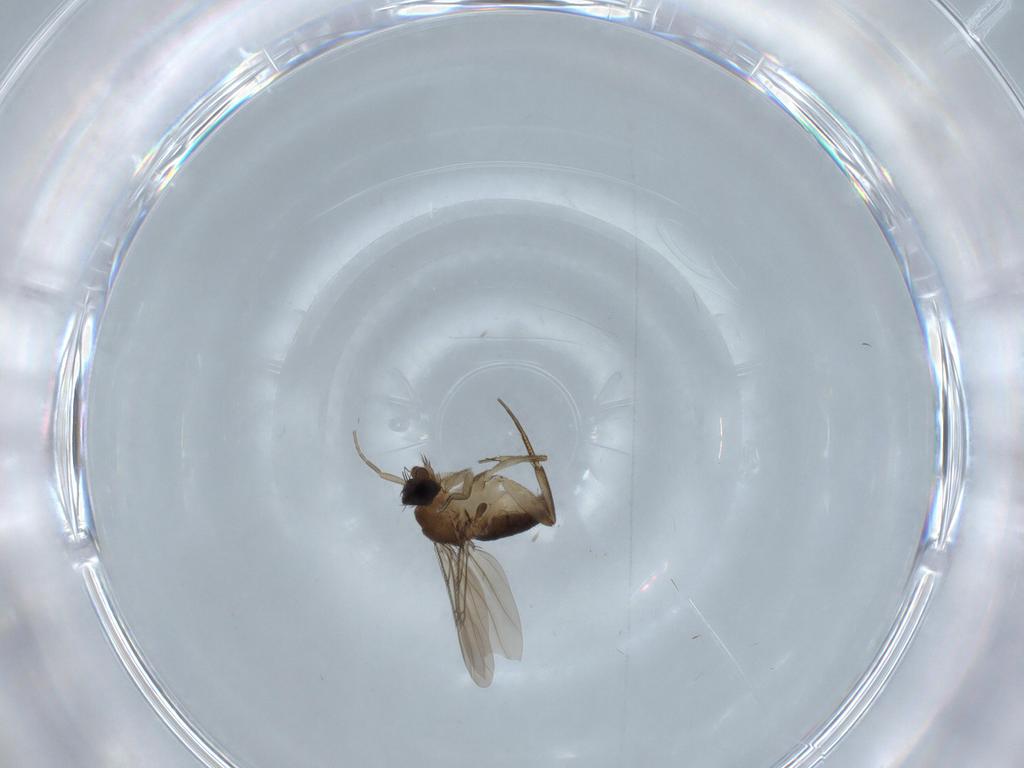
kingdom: Animalia
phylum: Arthropoda
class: Insecta
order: Diptera
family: Phoridae
